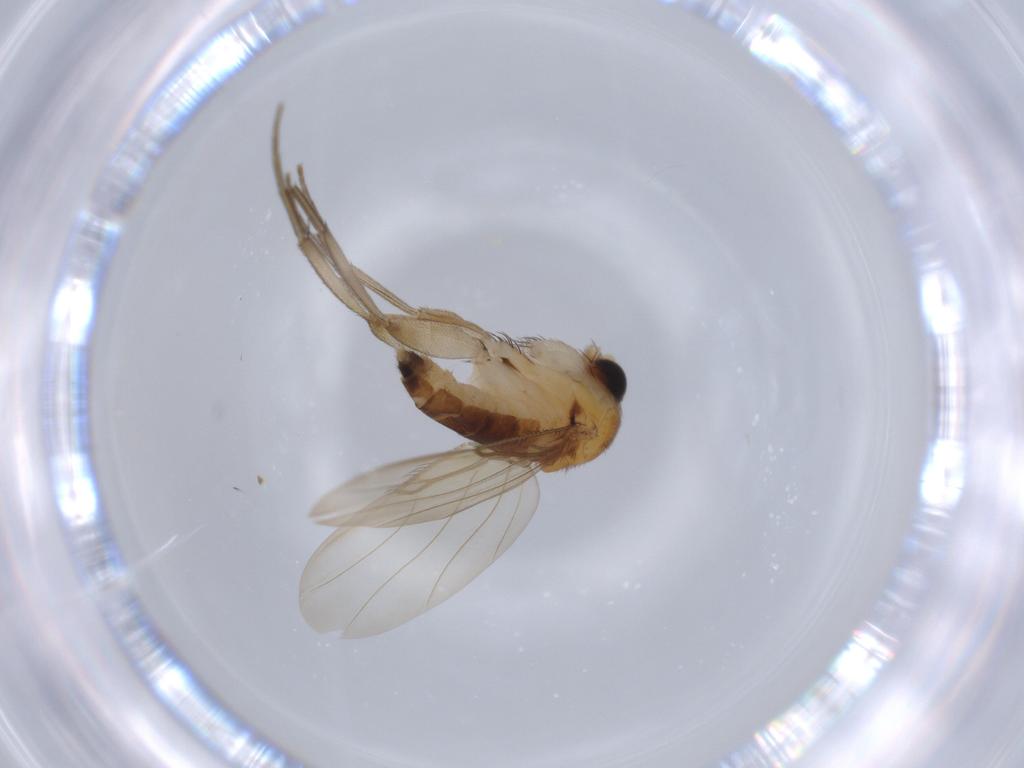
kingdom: Animalia
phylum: Arthropoda
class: Insecta
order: Diptera
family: Phoridae
